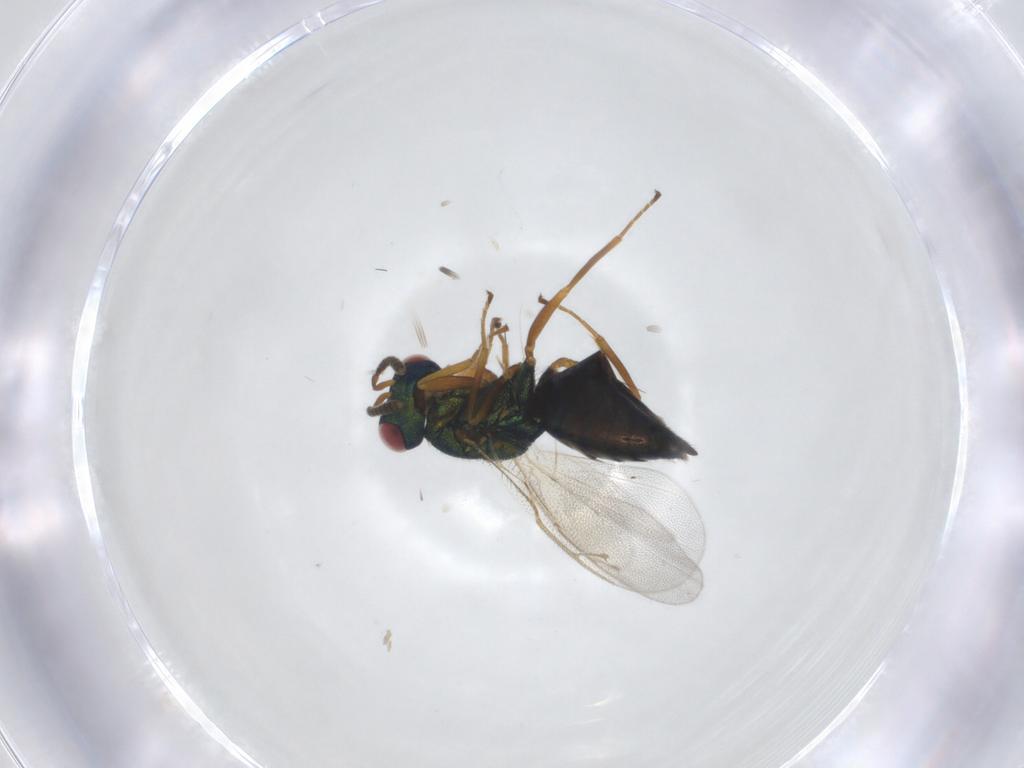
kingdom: Animalia
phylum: Arthropoda
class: Insecta
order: Hymenoptera
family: Pteromalidae
